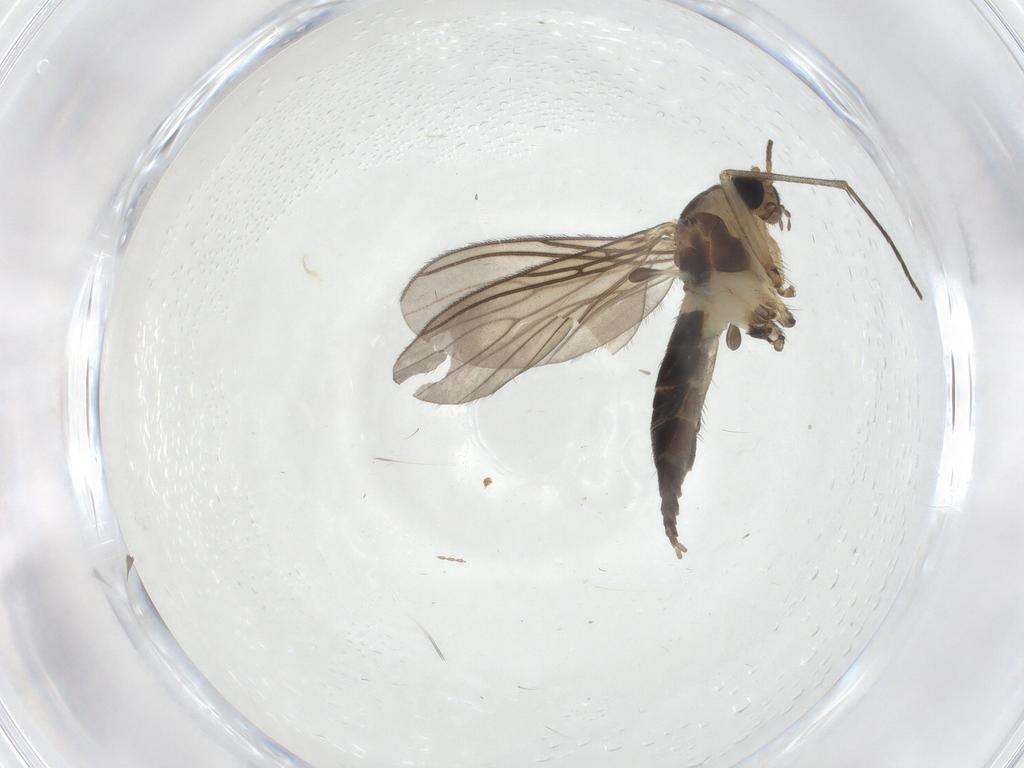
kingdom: Animalia
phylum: Arthropoda
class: Insecta
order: Diptera
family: Sciaridae
